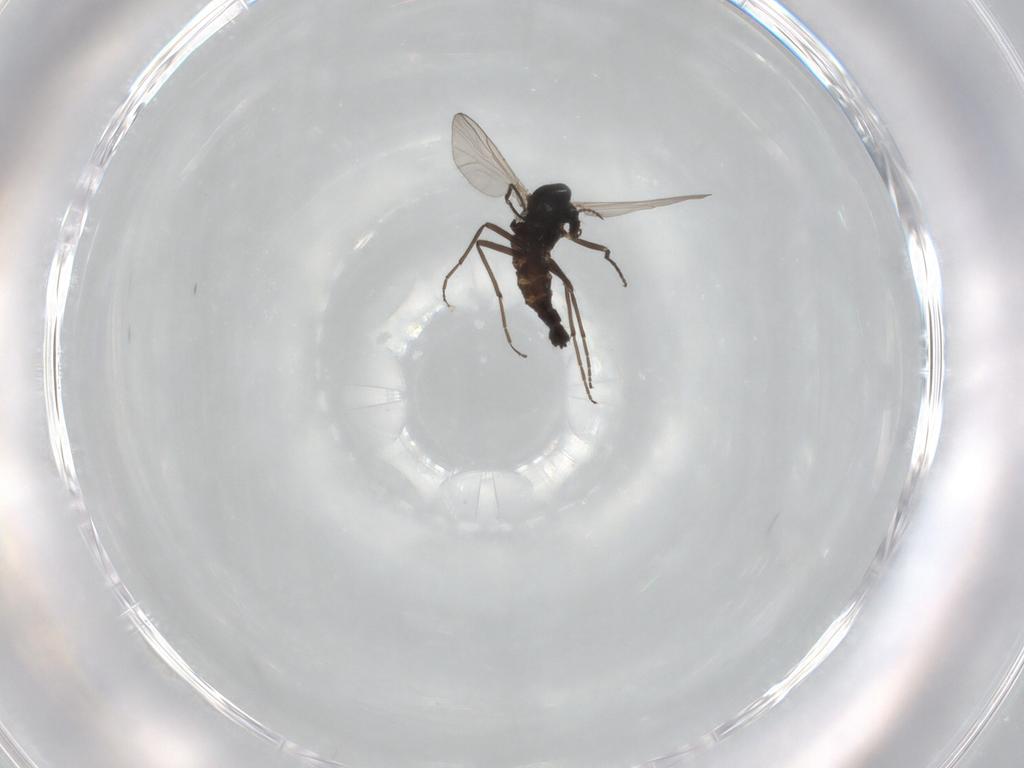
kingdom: Animalia
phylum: Arthropoda
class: Insecta
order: Diptera
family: Chironomidae
